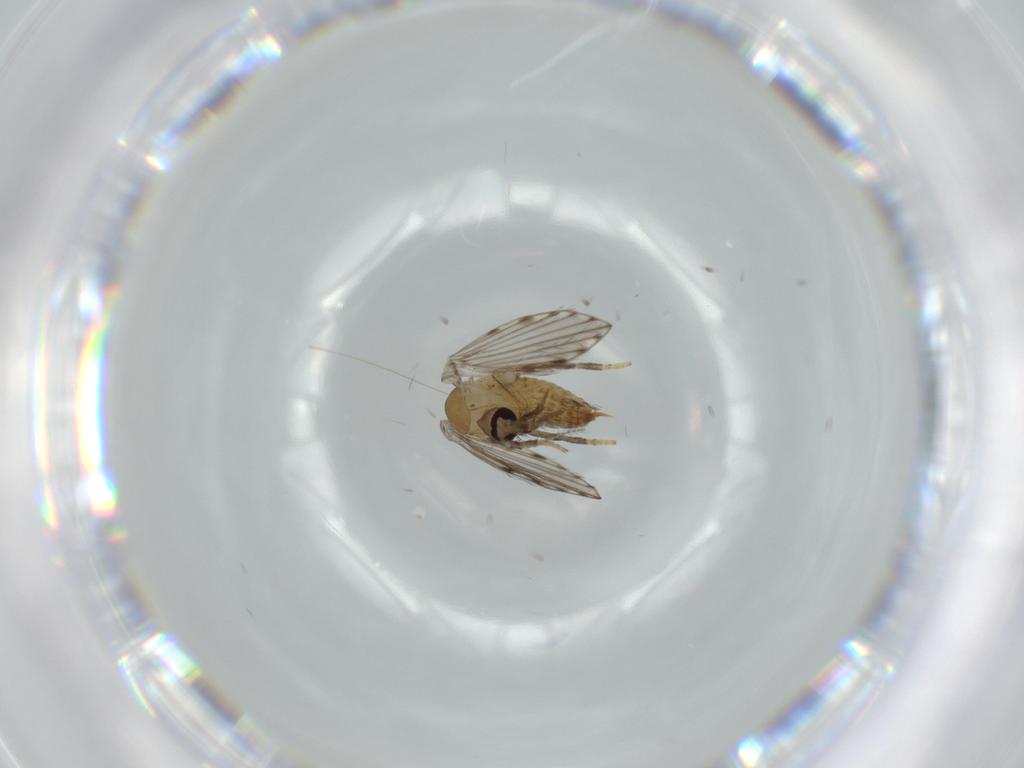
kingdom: Animalia
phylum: Arthropoda
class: Insecta
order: Diptera
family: Psychodidae
